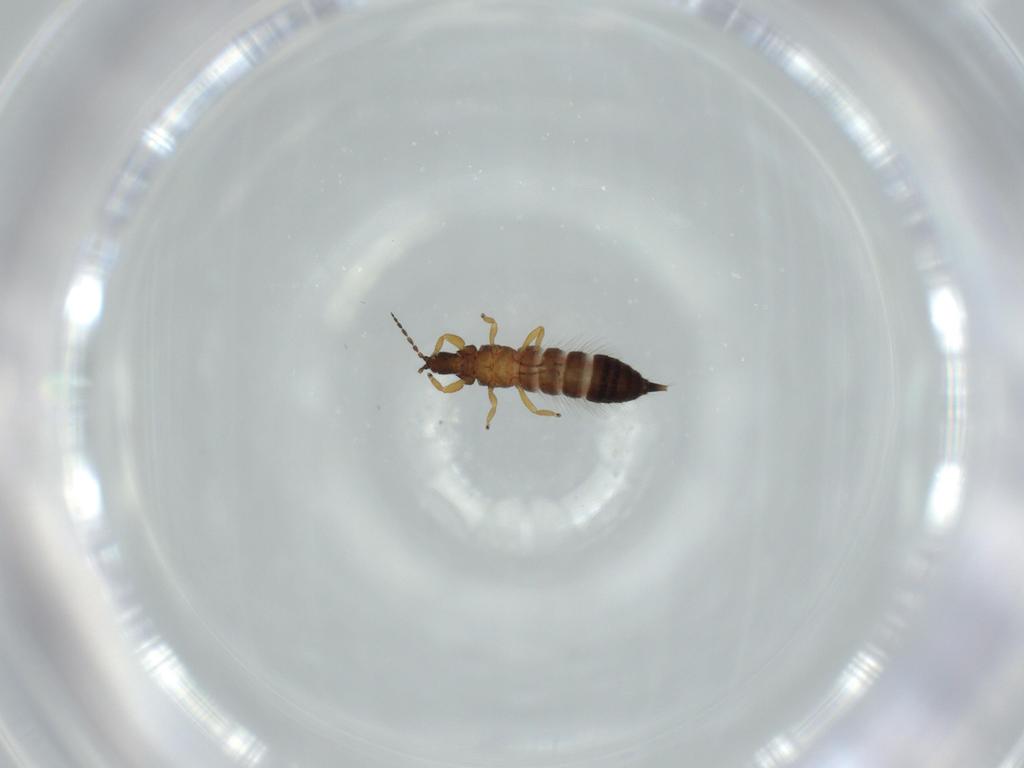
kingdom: Animalia
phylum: Arthropoda
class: Insecta
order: Thysanoptera
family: Phlaeothripidae
